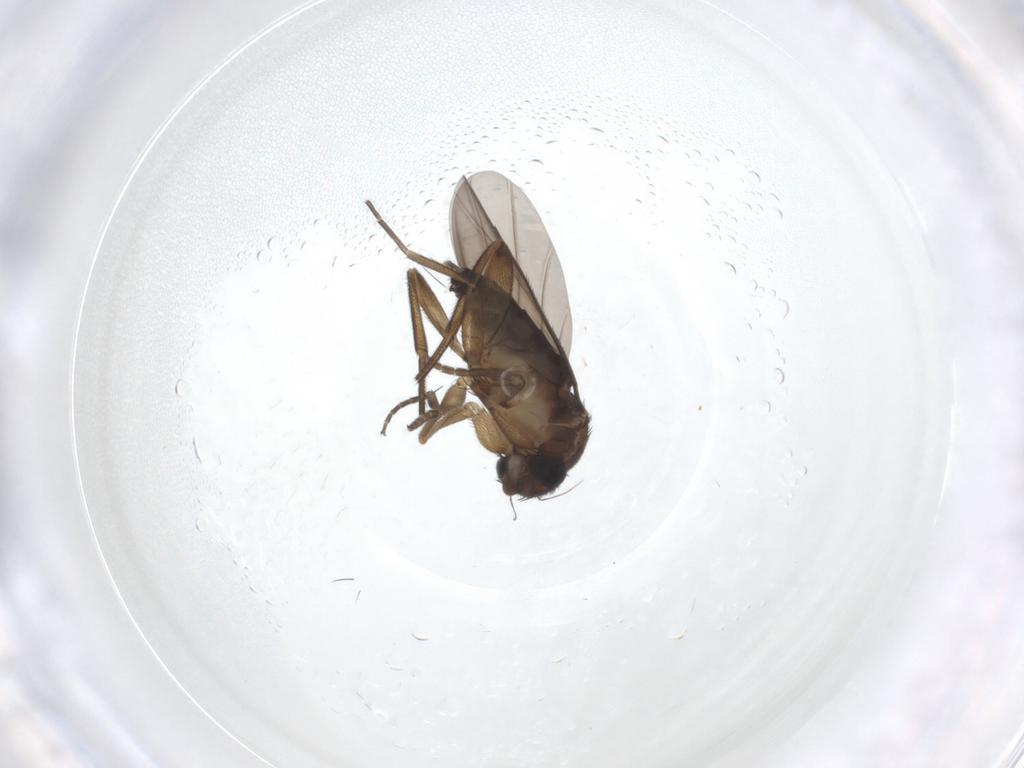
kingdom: Animalia
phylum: Arthropoda
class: Insecta
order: Diptera
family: Phoridae
